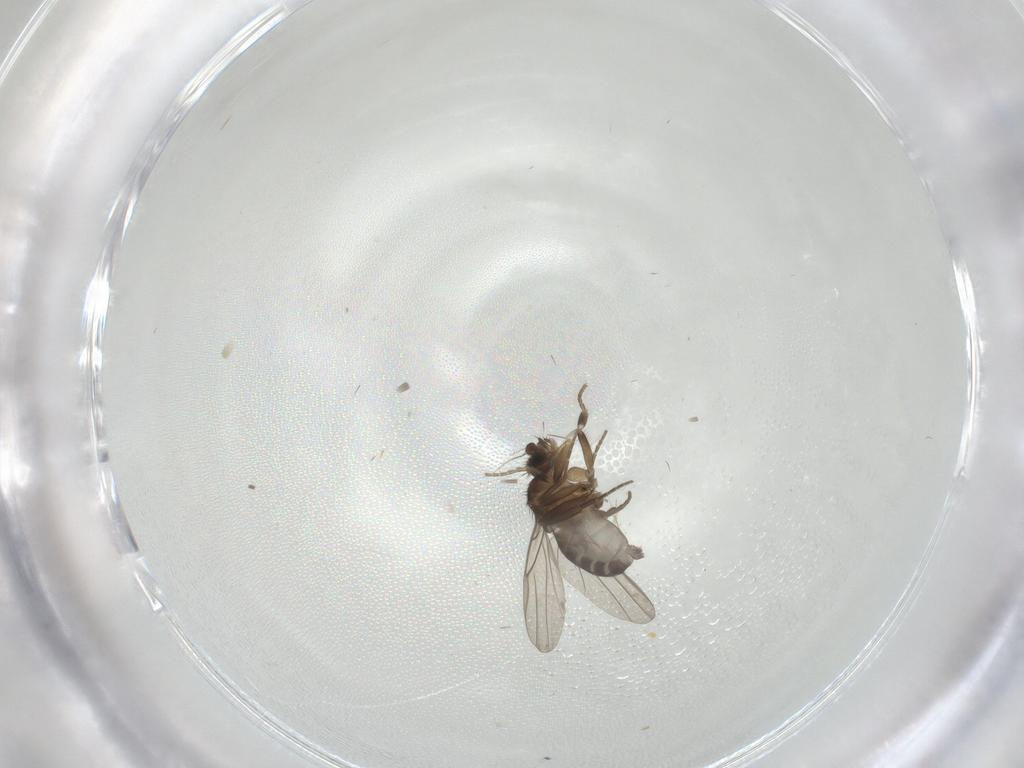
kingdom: Animalia
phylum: Arthropoda
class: Insecta
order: Diptera
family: Phoridae
